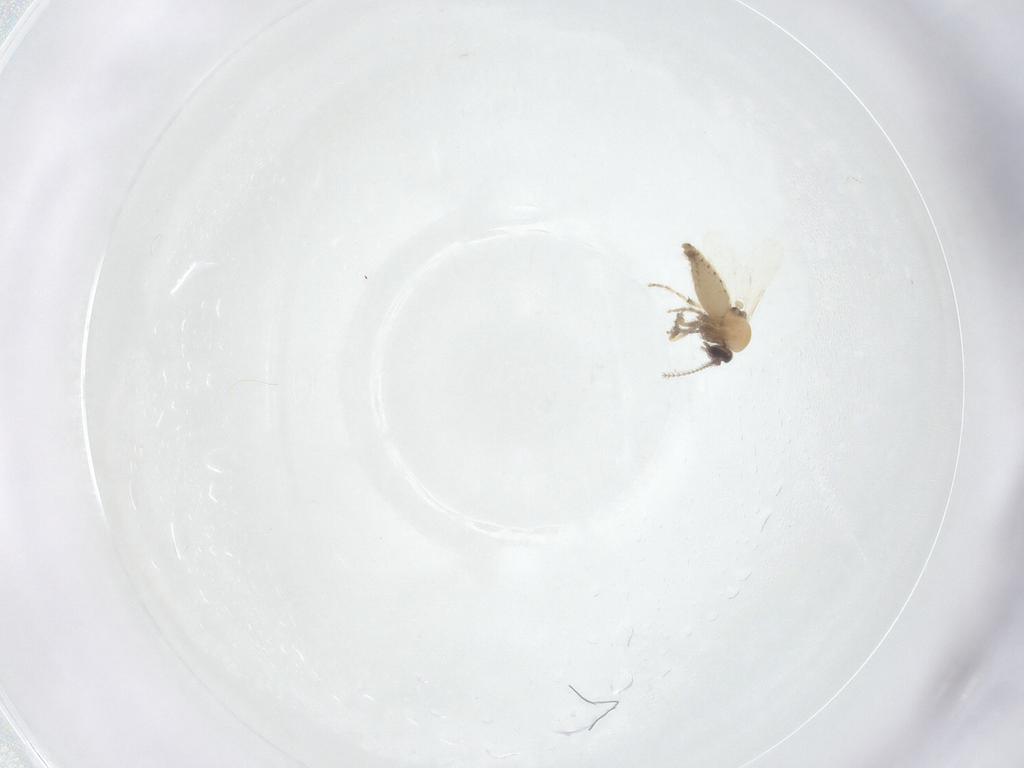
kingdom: Animalia
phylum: Arthropoda
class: Insecta
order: Diptera
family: Ceratopogonidae
